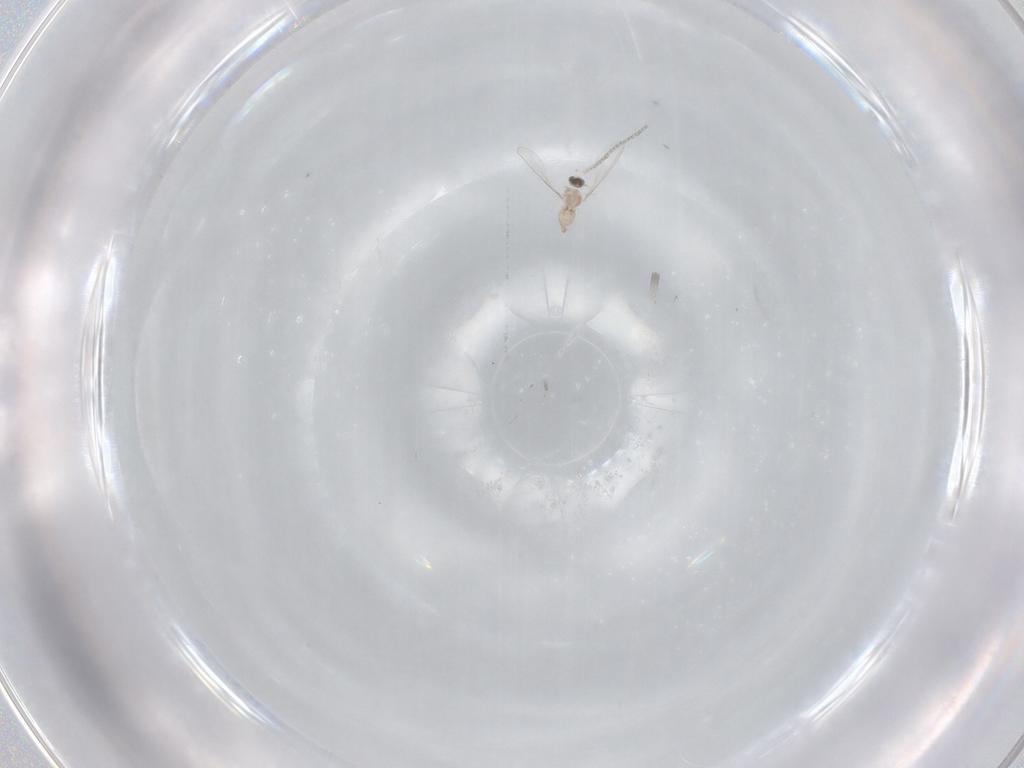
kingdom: Animalia
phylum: Arthropoda
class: Insecta
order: Diptera
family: Cecidomyiidae
